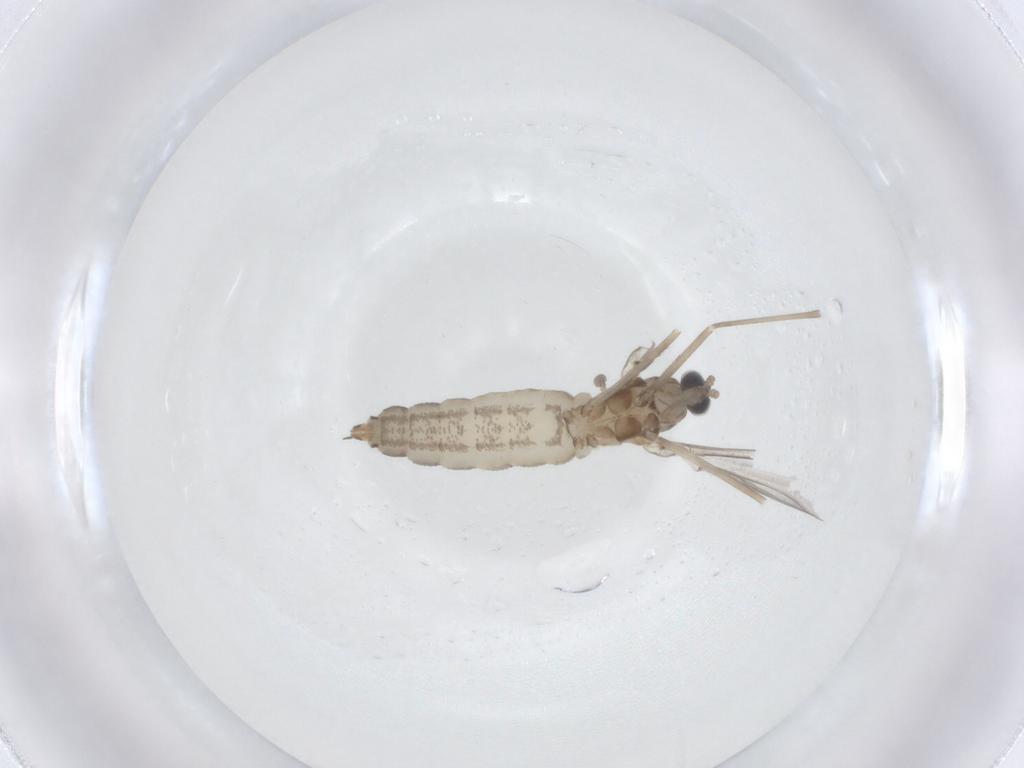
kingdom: Animalia
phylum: Arthropoda
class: Insecta
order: Diptera
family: Cecidomyiidae
